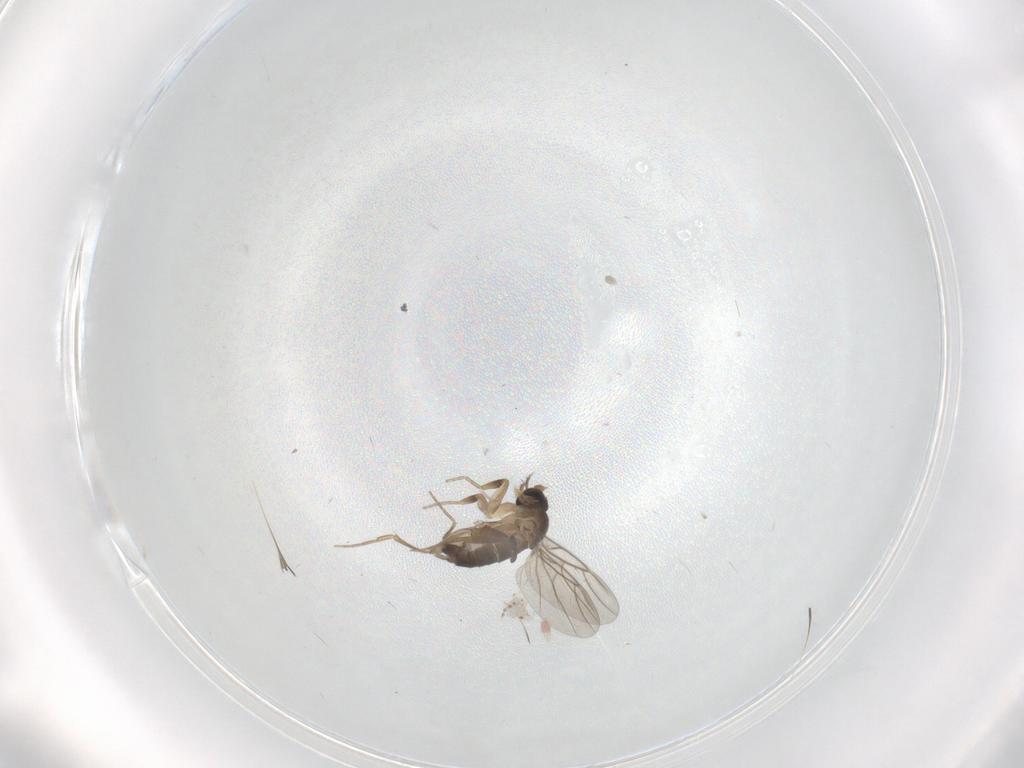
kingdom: Animalia
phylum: Arthropoda
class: Insecta
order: Diptera
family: Phoridae
